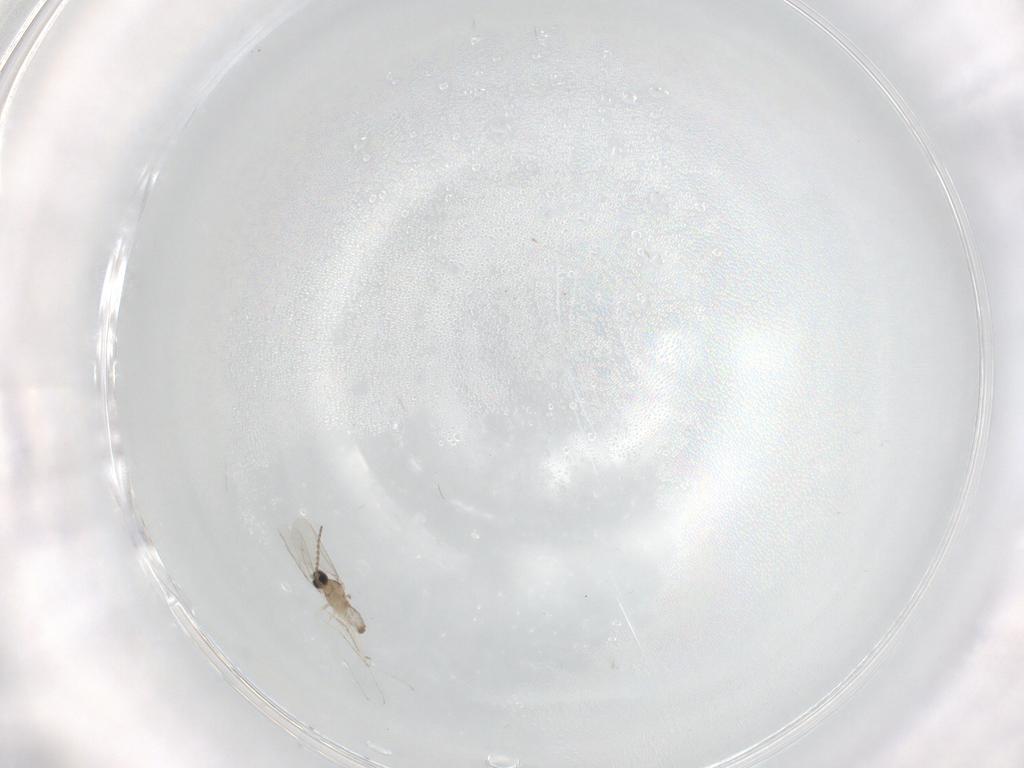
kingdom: Animalia
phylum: Arthropoda
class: Insecta
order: Diptera
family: Cecidomyiidae
